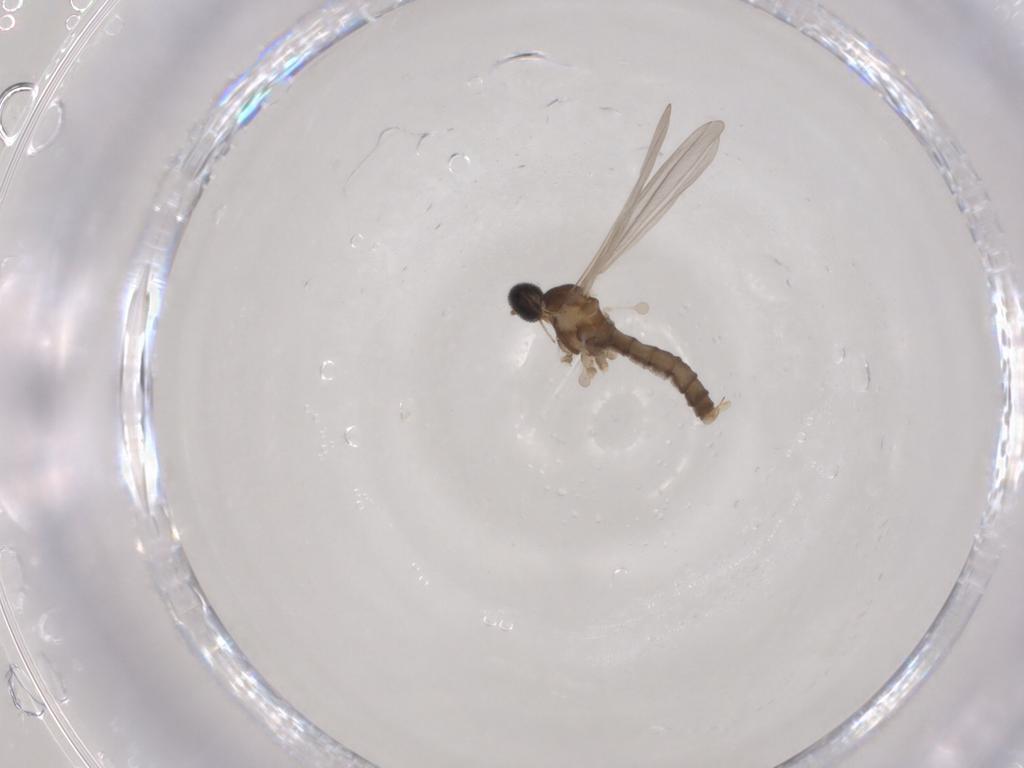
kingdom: Animalia
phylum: Arthropoda
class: Insecta
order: Diptera
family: Cecidomyiidae
